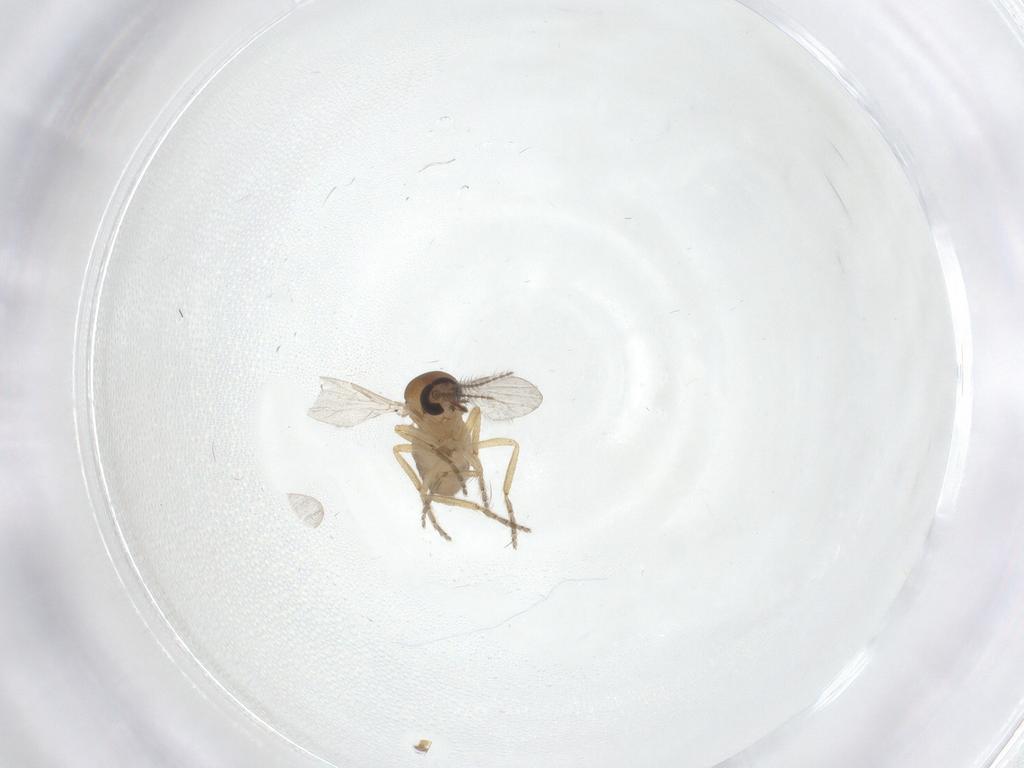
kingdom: Animalia
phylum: Arthropoda
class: Insecta
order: Diptera
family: Ceratopogonidae
